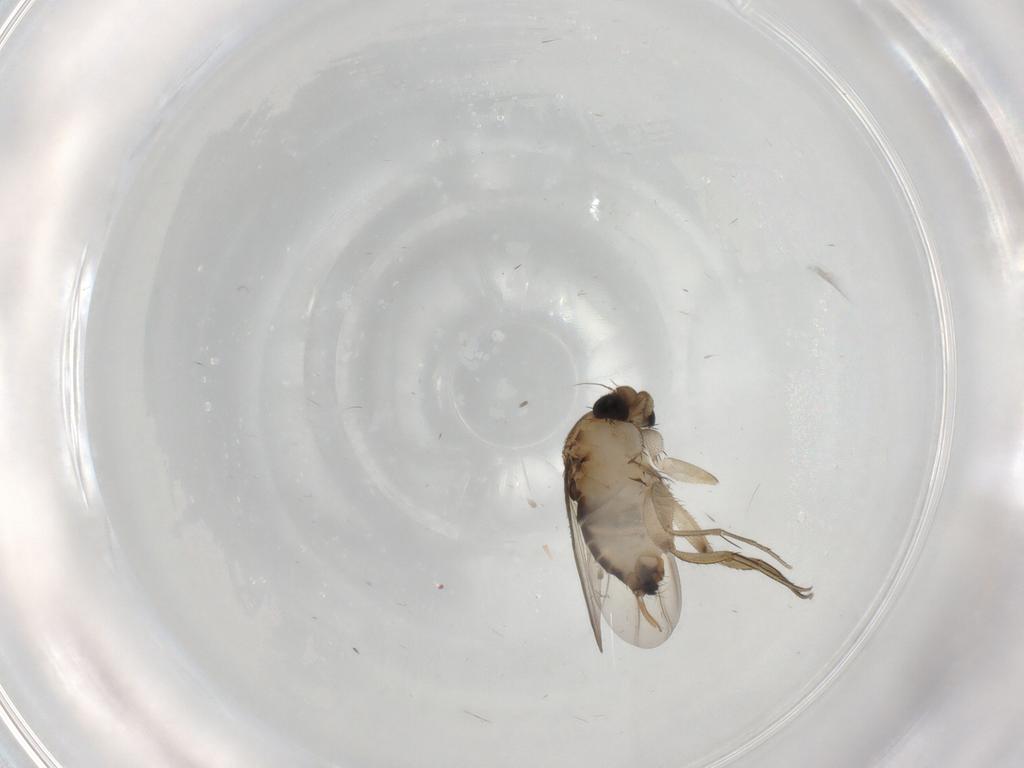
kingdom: Animalia
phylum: Arthropoda
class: Insecta
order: Diptera
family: Phoridae
